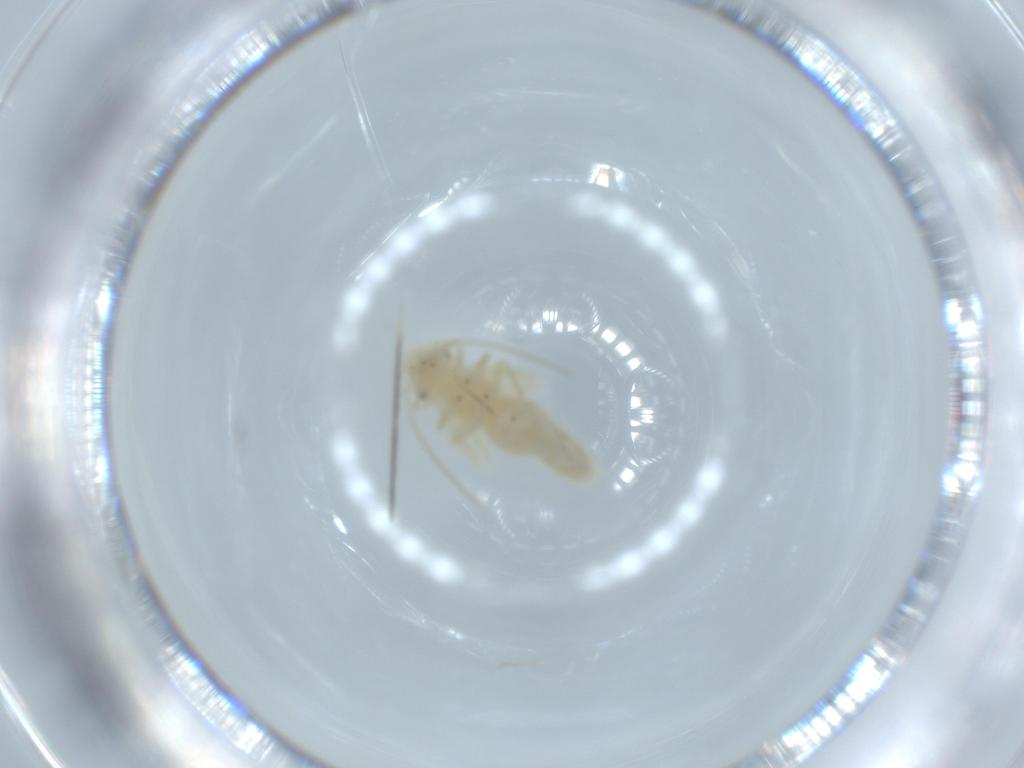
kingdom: Animalia
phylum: Arthropoda
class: Insecta
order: Psocodea
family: Caeciliusidae
